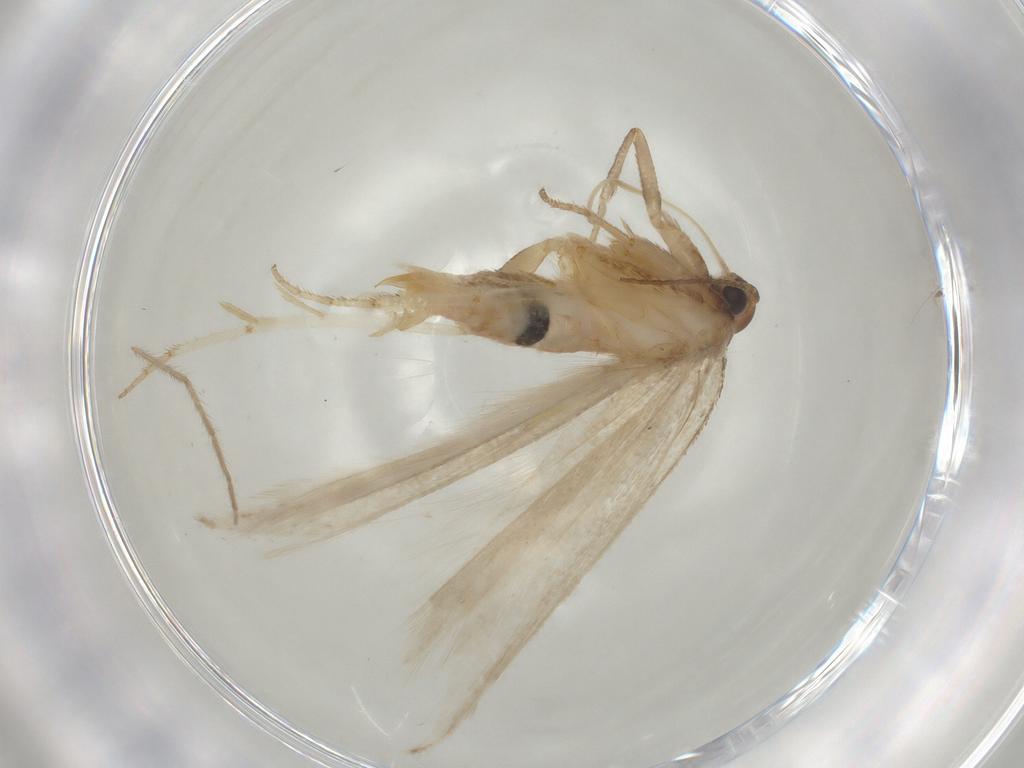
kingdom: Animalia
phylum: Arthropoda
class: Insecta
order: Lepidoptera
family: Gelechiidae
